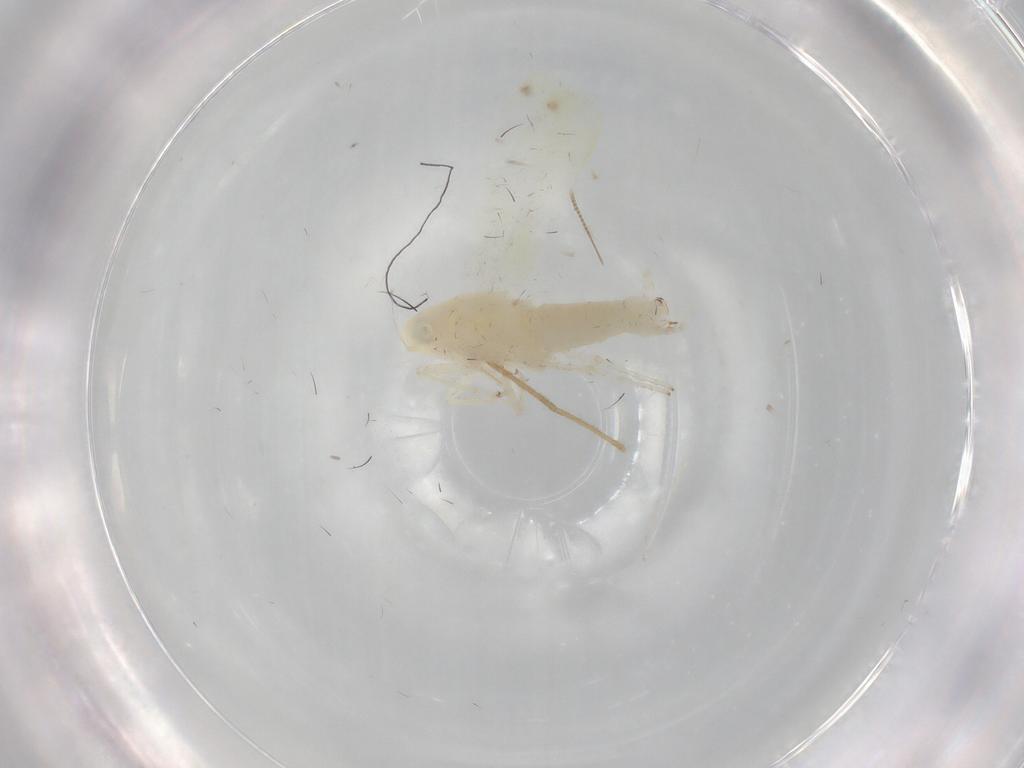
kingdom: Animalia
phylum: Arthropoda
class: Insecta
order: Hemiptera
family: Cicadellidae
